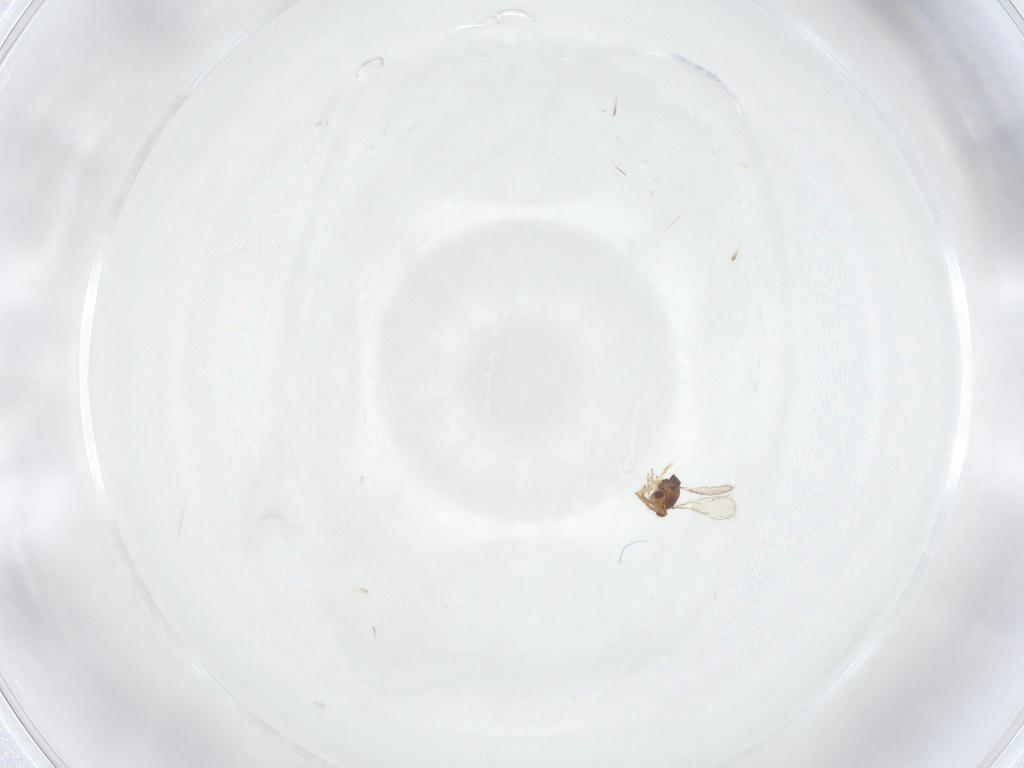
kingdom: Animalia
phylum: Arthropoda
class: Insecta
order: Hymenoptera
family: Aphelinidae
